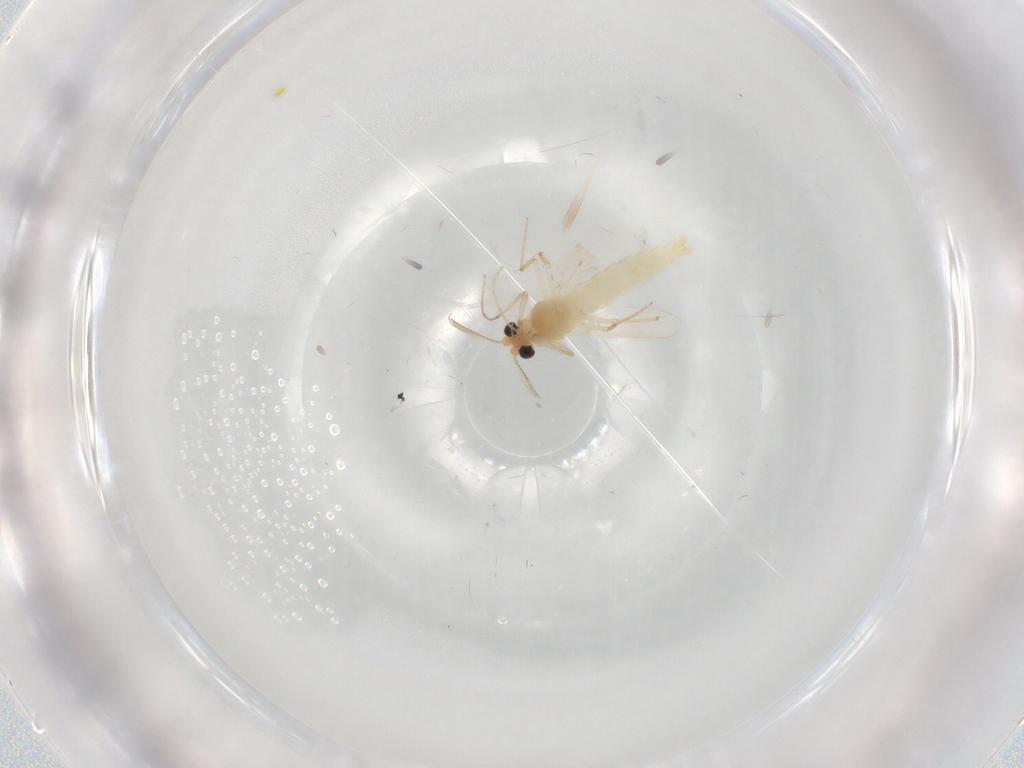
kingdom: Animalia
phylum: Arthropoda
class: Insecta
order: Diptera
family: Chironomidae
